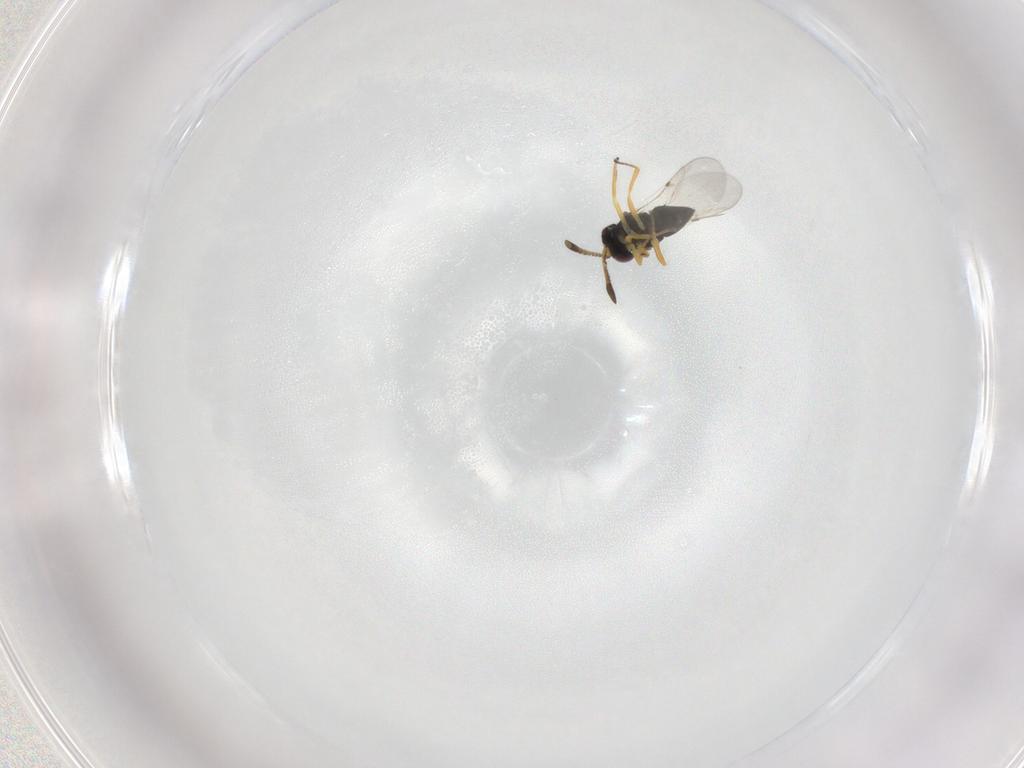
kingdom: Animalia
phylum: Arthropoda
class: Insecta
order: Hymenoptera
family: Encyrtidae
